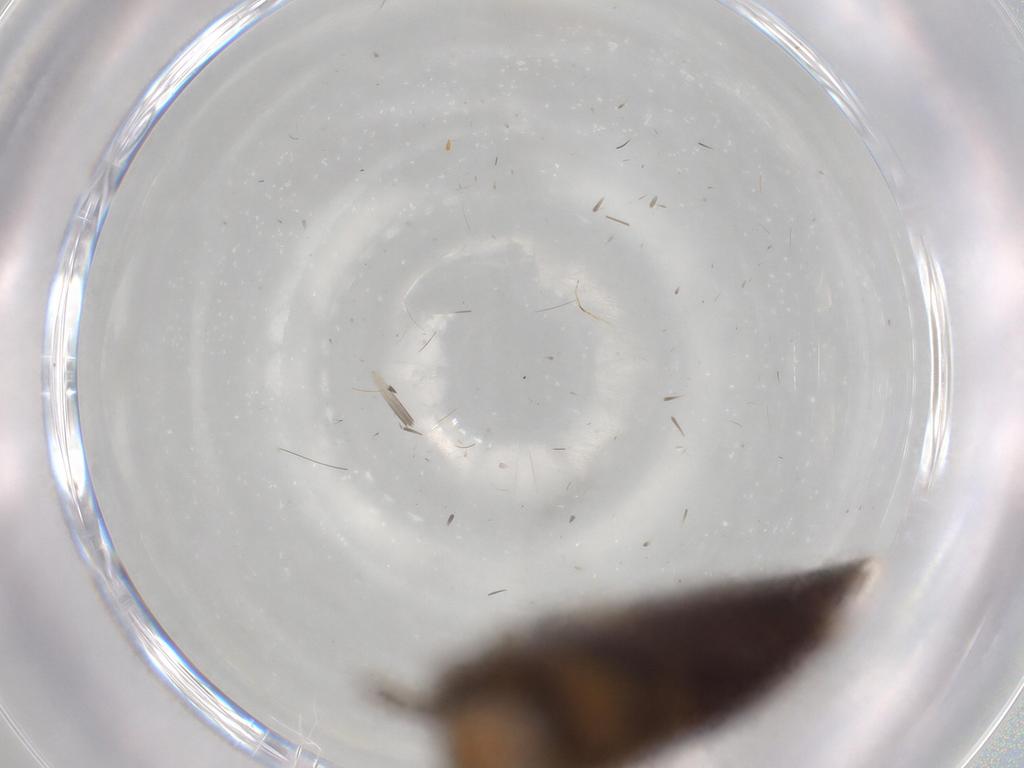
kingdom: Animalia
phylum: Arthropoda
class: Insecta
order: Hemiptera
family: Cicadellidae
